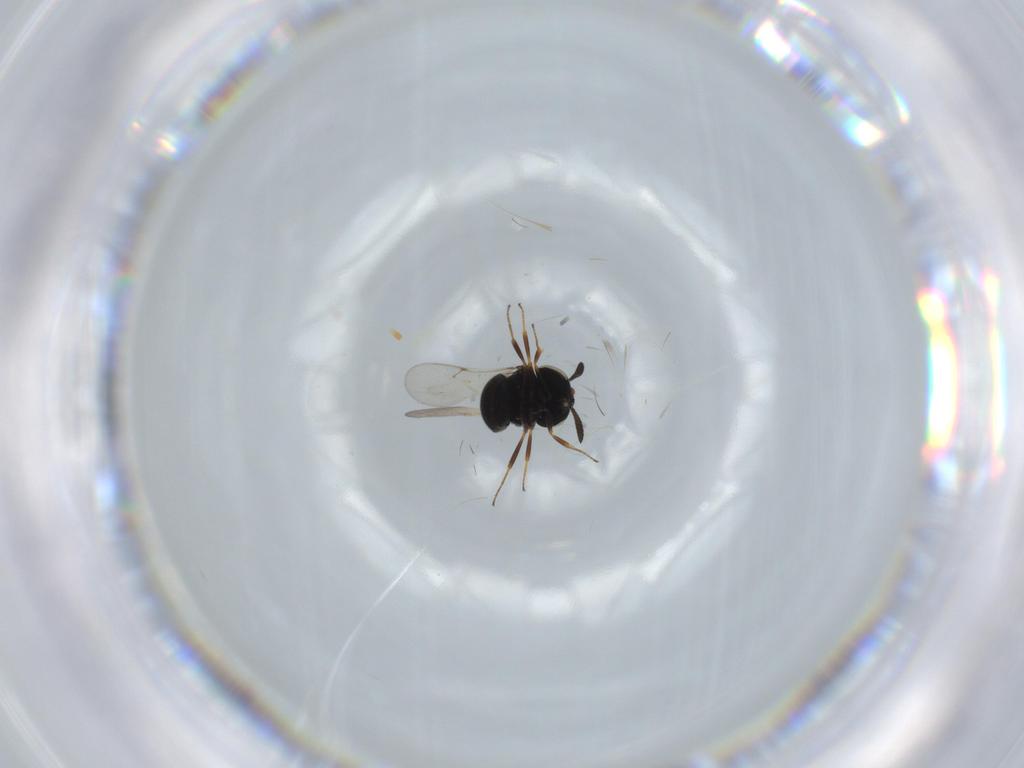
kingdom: Animalia
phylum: Arthropoda
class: Insecta
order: Hymenoptera
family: Scelionidae
